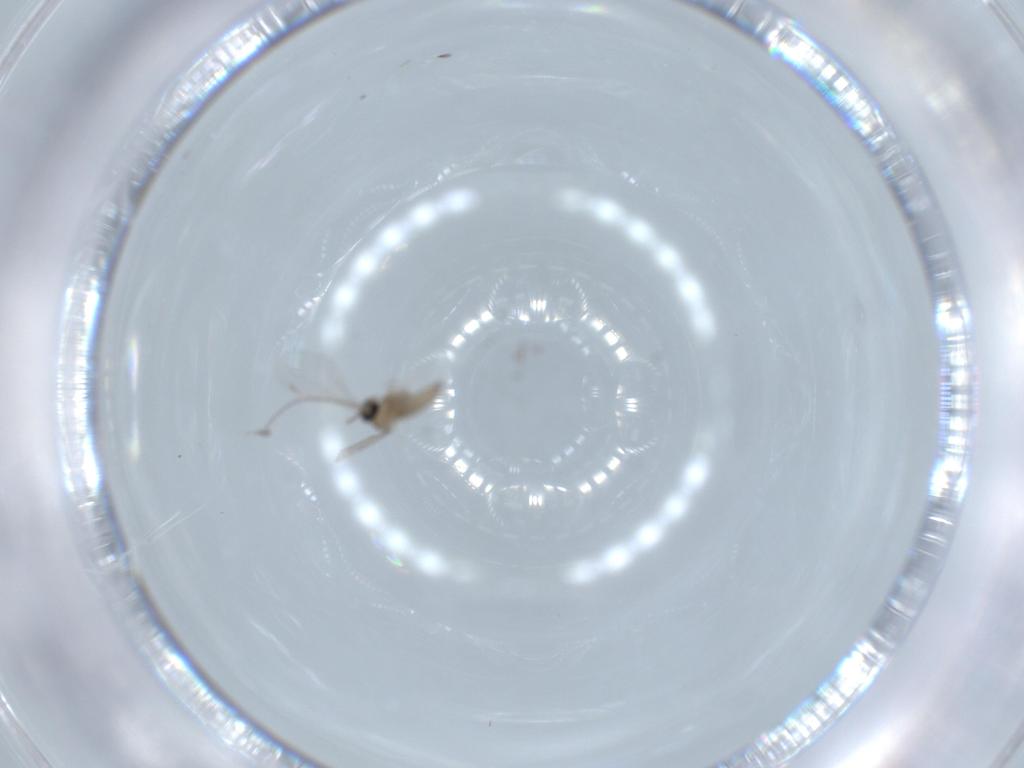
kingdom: Animalia
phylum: Arthropoda
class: Insecta
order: Diptera
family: Cecidomyiidae
